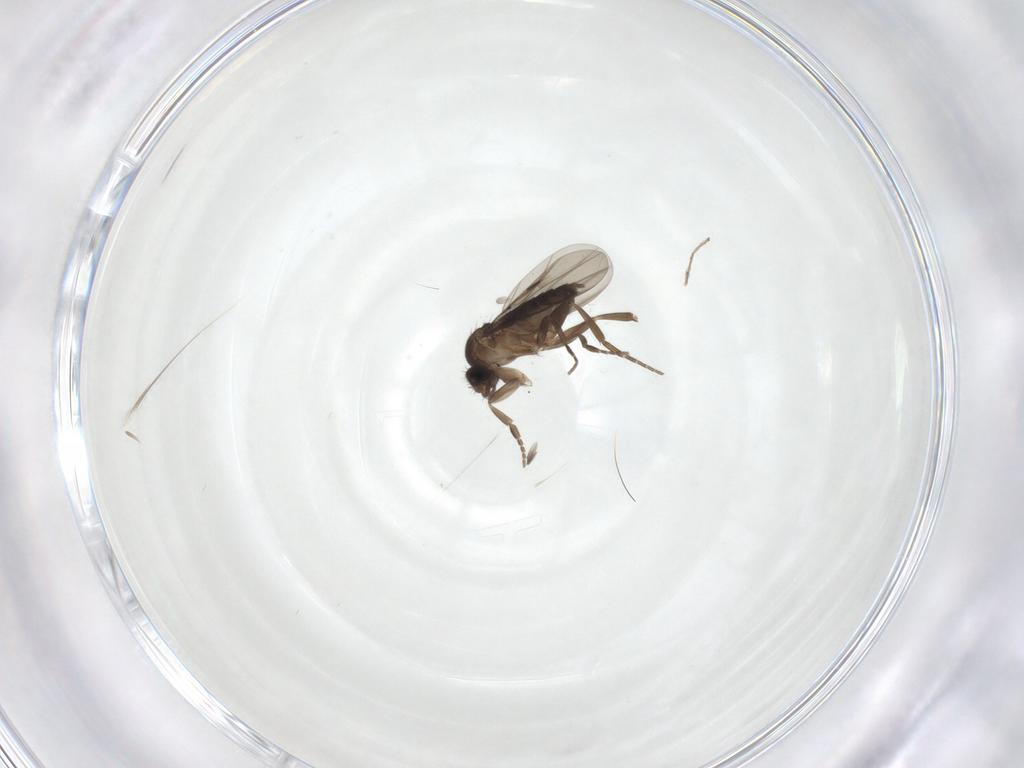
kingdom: Animalia
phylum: Arthropoda
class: Insecta
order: Diptera
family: Phoridae
